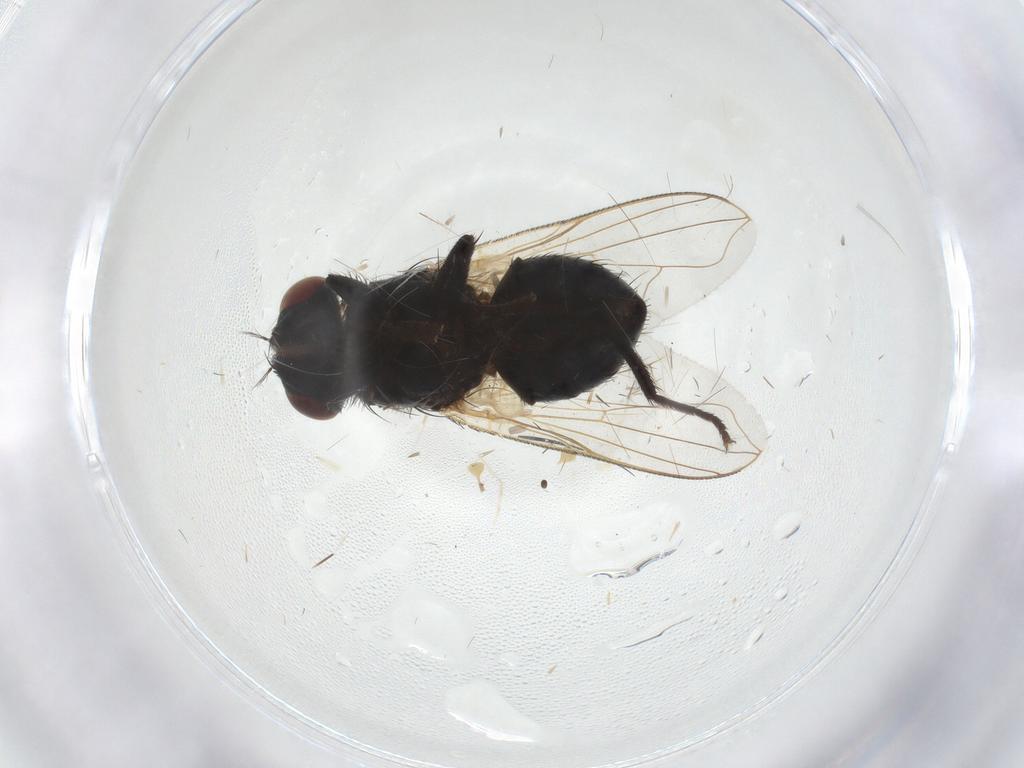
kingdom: Animalia
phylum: Arthropoda
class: Insecta
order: Diptera
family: Chloropidae
